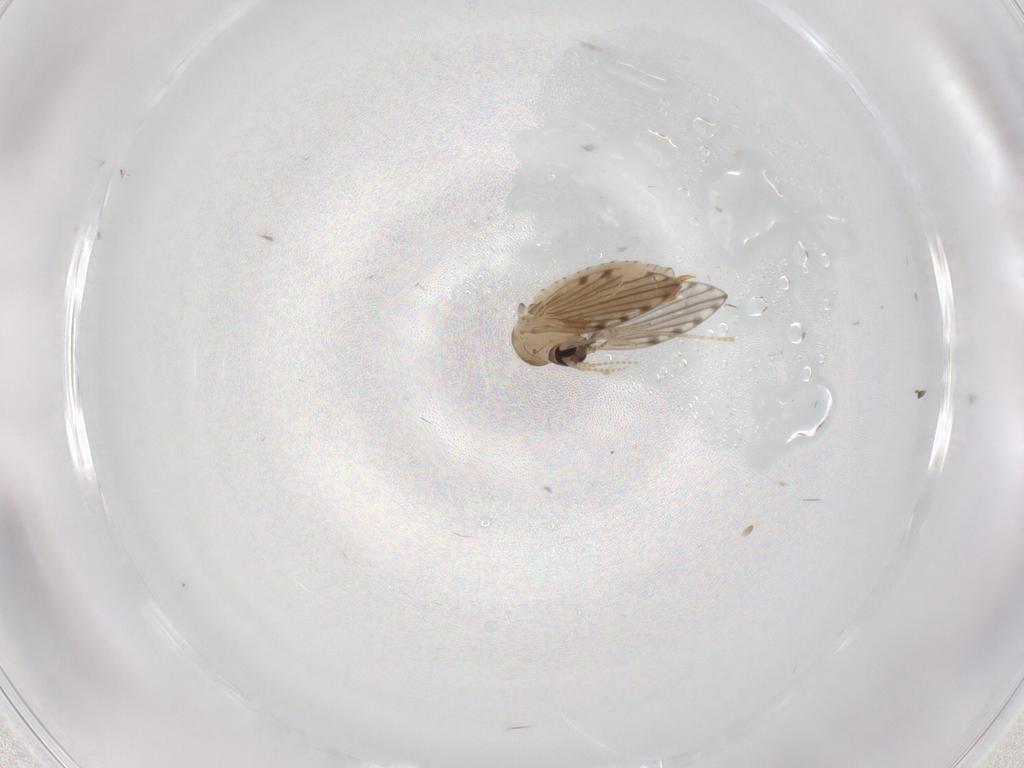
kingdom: Animalia
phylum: Arthropoda
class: Insecta
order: Diptera
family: Psychodidae
